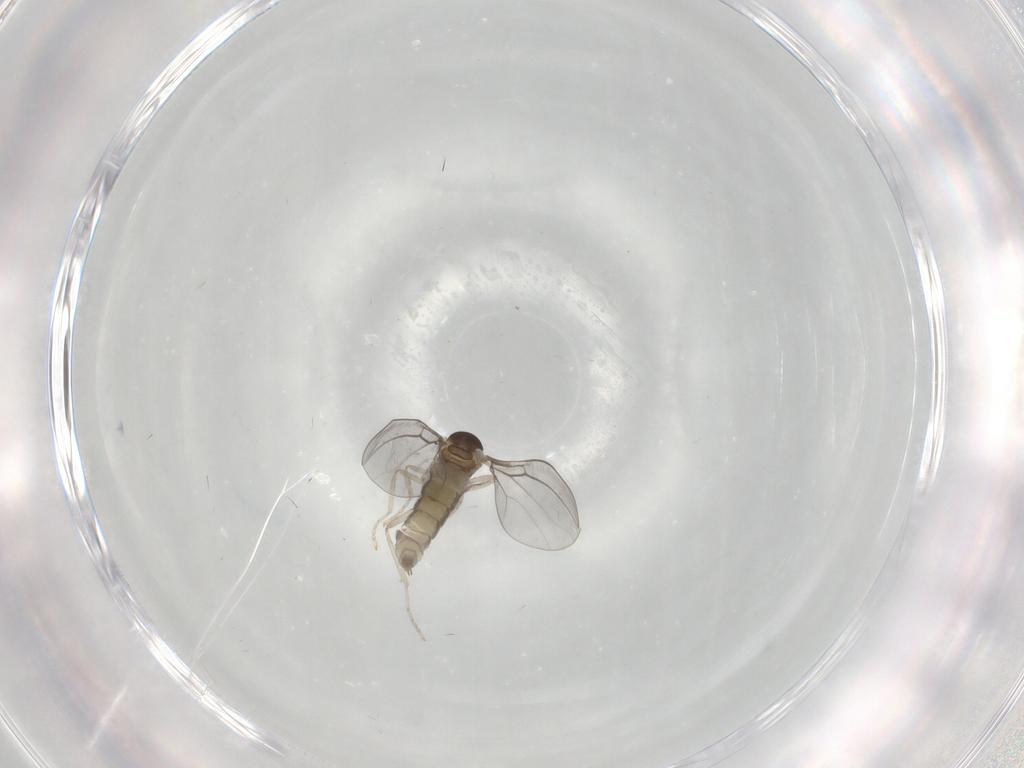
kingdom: Animalia
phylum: Arthropoda
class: Insecta
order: Diptera
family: Cecidomyiidae
